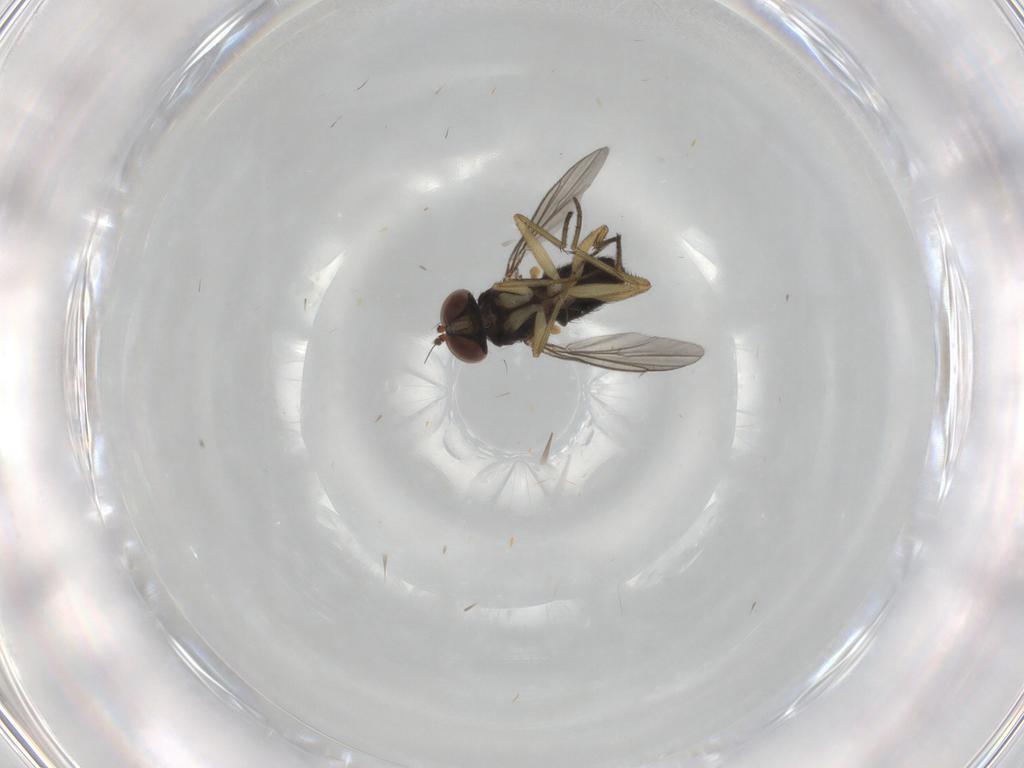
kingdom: Animalia
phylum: Arthropoda
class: Insecta
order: Diptera
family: Dolichopodidae
